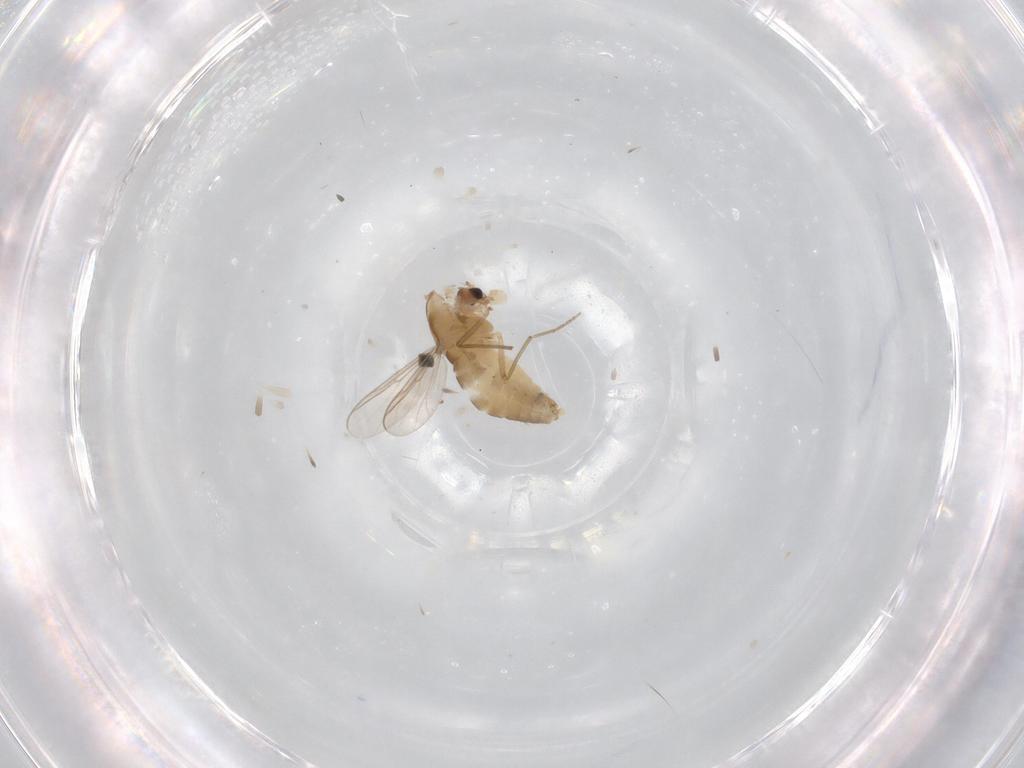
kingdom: Animalia
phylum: Arthropoda
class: Insecta
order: Diptera
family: Chironomidae
